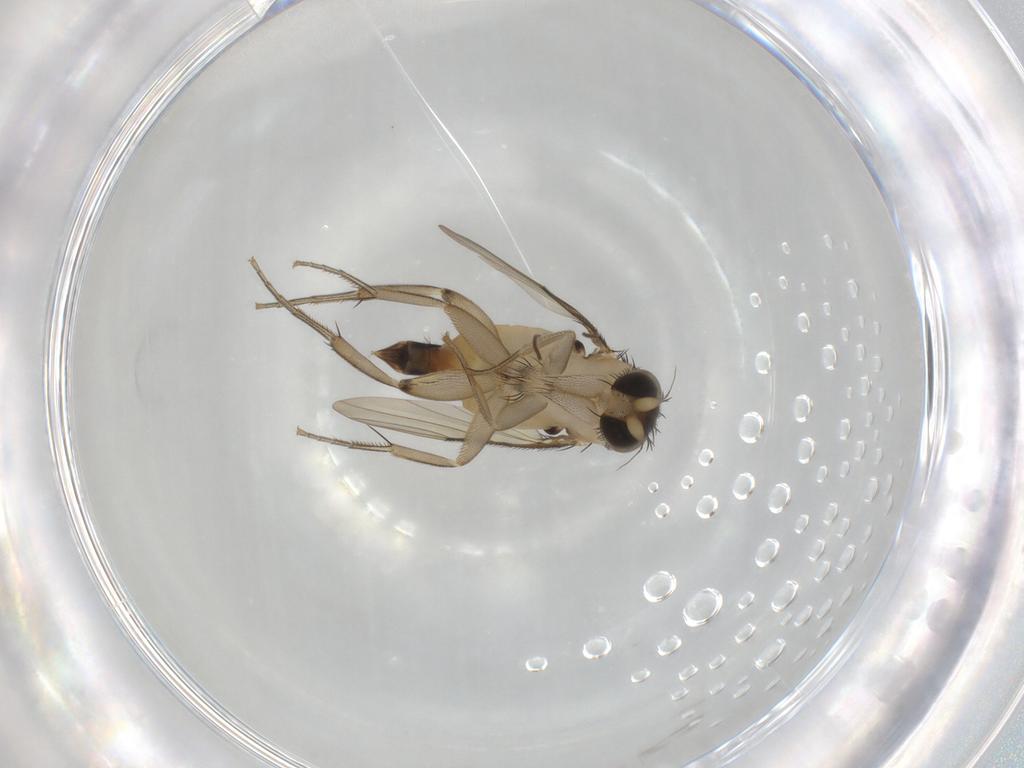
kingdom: Animalia
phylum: Arthropoda
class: Insecta
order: Diptera
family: Phoridae
